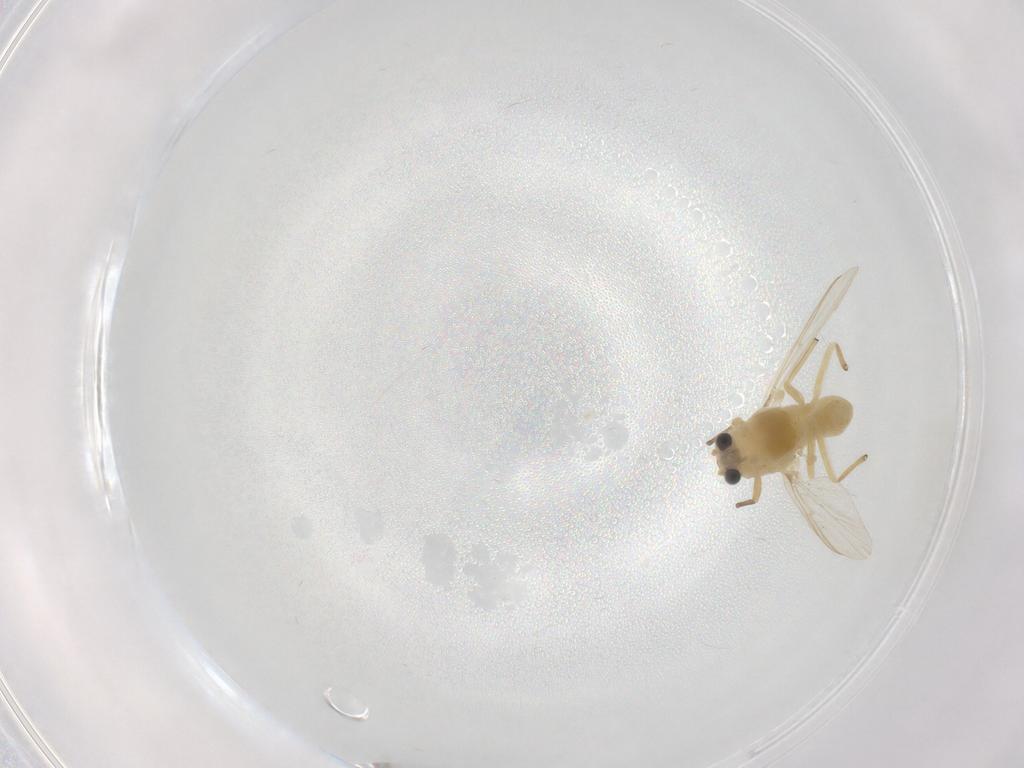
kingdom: Animalia
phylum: Arthropoda
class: Insecta
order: Diptera
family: Chironomidae
